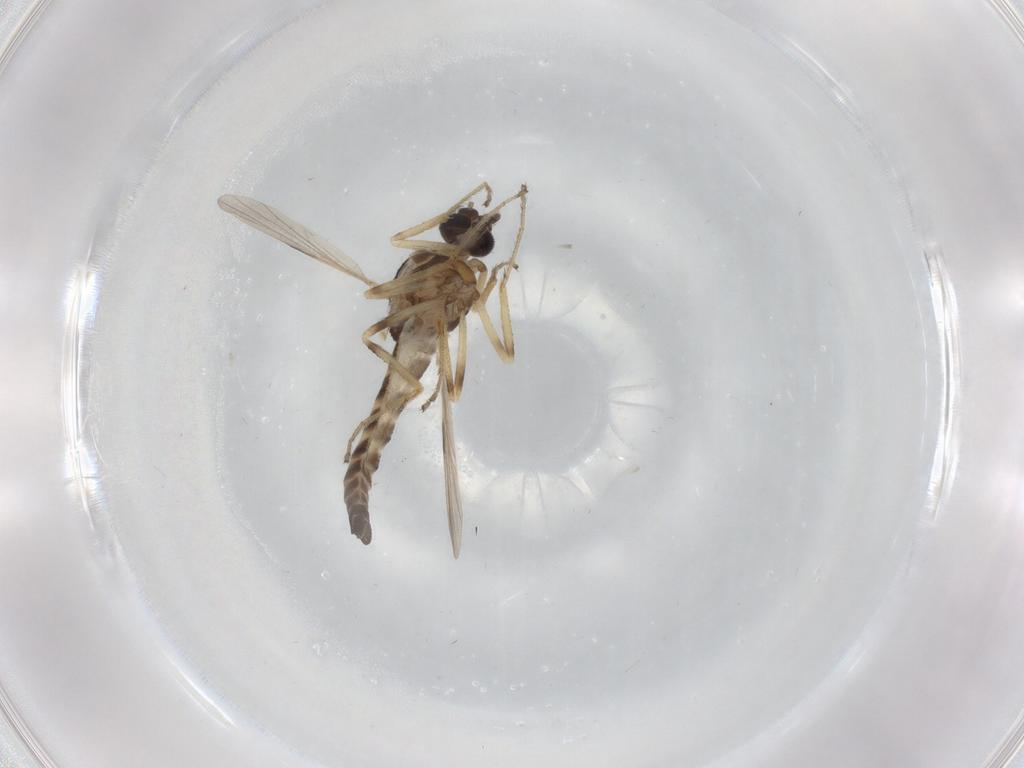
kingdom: Animalia
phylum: Arthropoda
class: Insecta
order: Diptera
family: Ceratopogonidae
